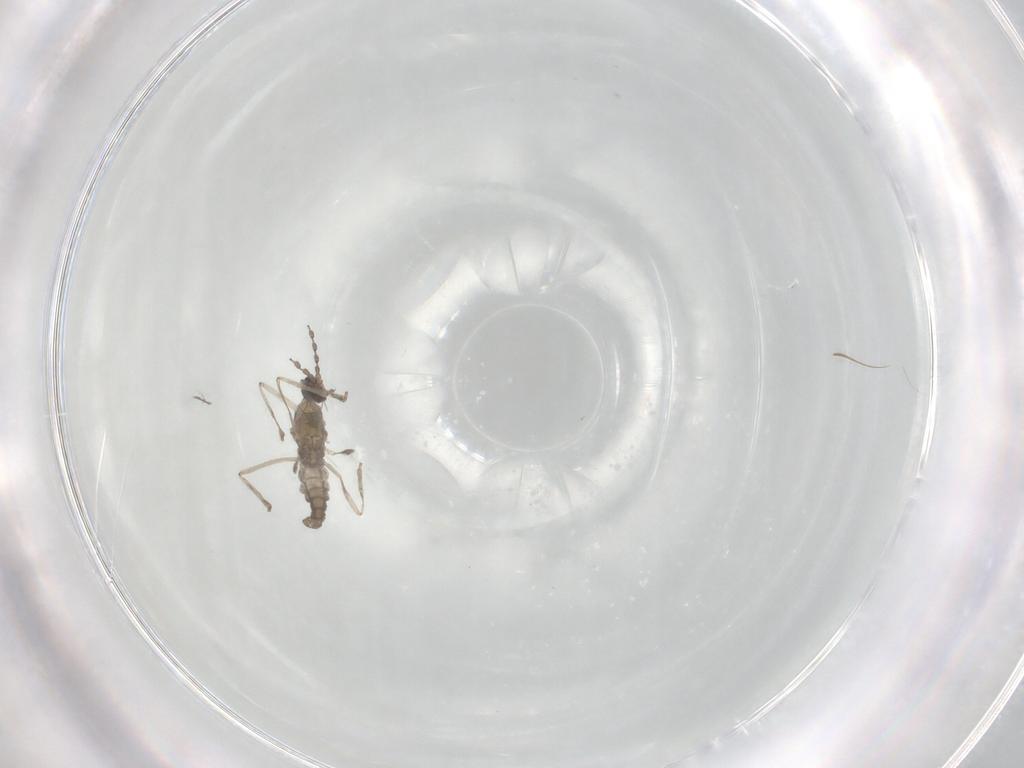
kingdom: Animalia
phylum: Arthropoda
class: Insecta
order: Diptera
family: Cecidomyiidae
